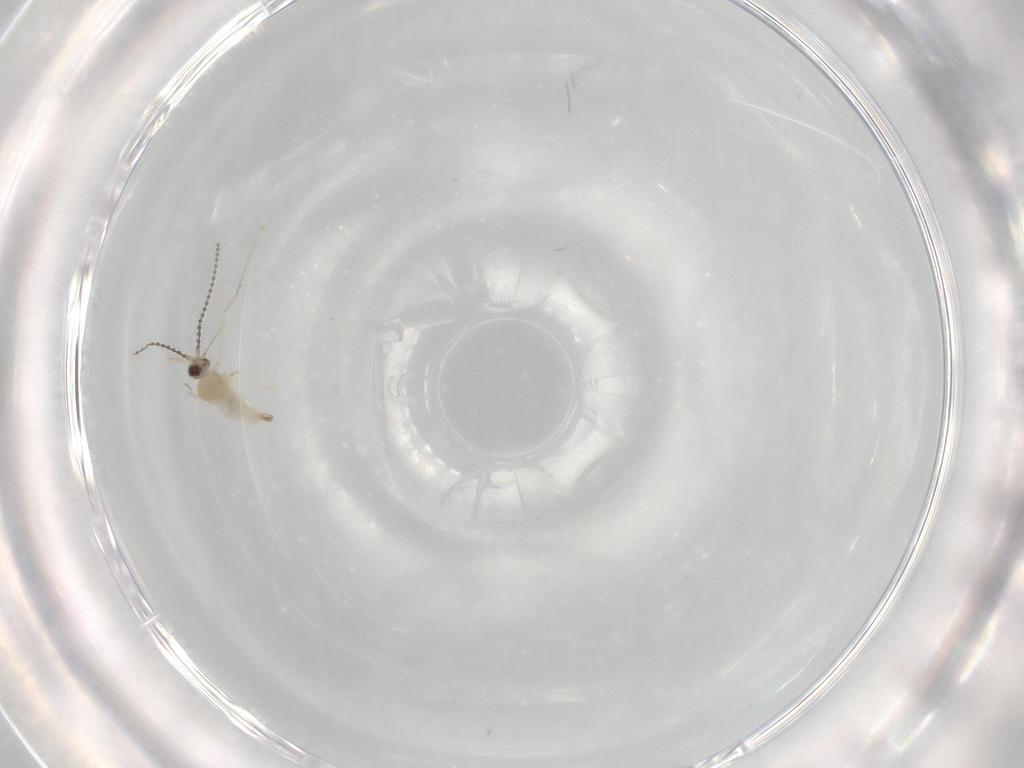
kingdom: Animalia
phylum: Arthropoda
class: Insecta
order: Diptera
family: Cecidomyiidae
